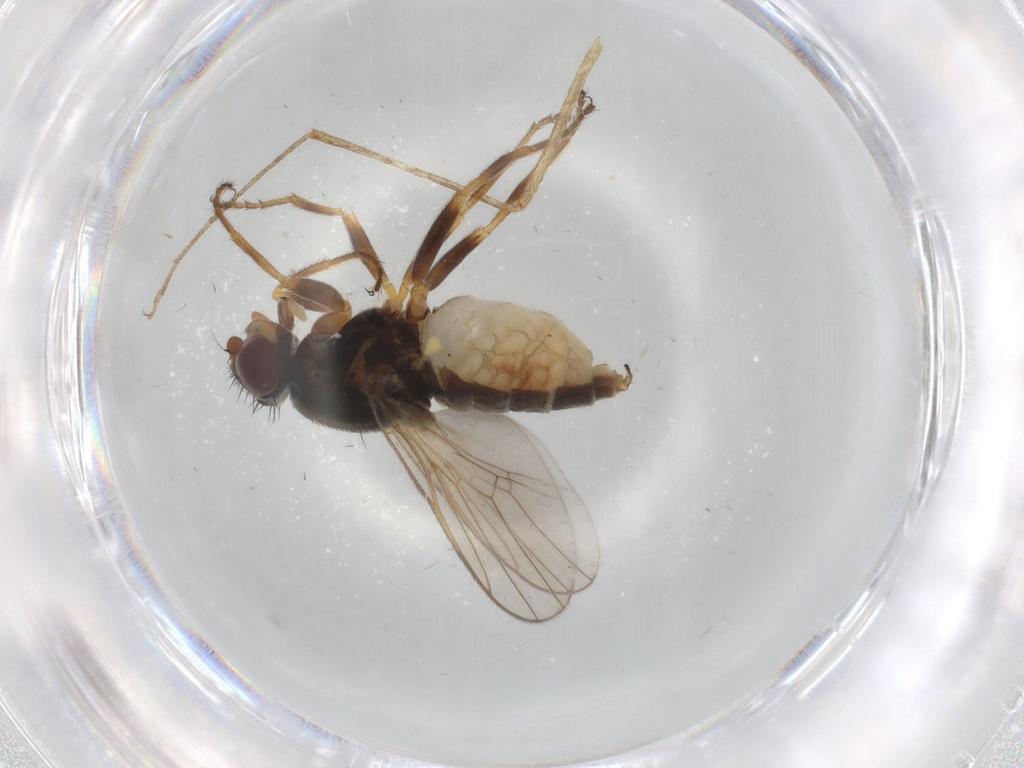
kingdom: Animalia
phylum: Arthropoda
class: Insecta
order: Diptera
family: Chloropidae
